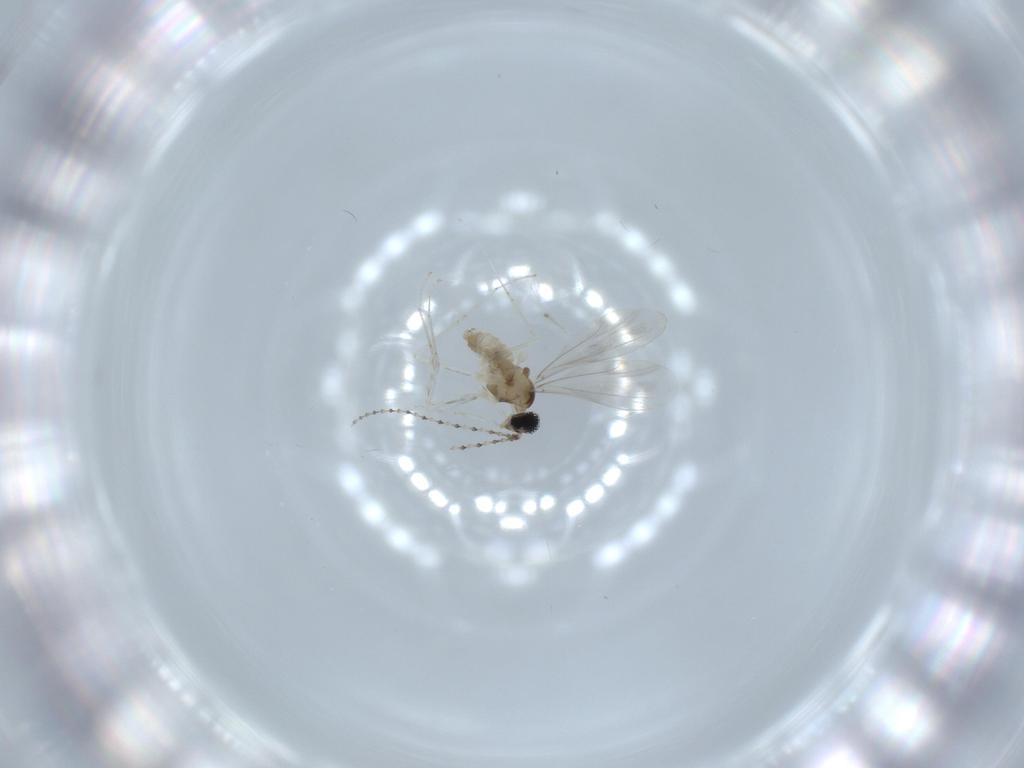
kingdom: Animalia
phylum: Arthropoda
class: Insecta
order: Diptera
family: Cecidomyiidae
